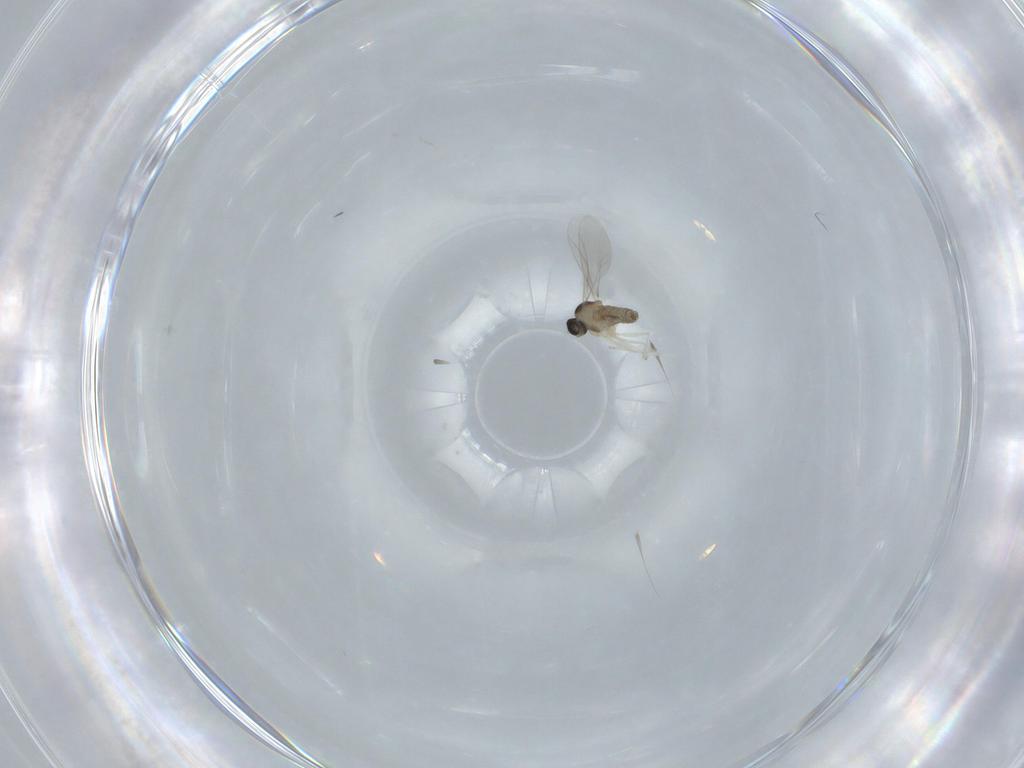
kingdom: Animalia
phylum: Arthropoda
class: Insecta
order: Diptera
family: Cecidomyiidae
